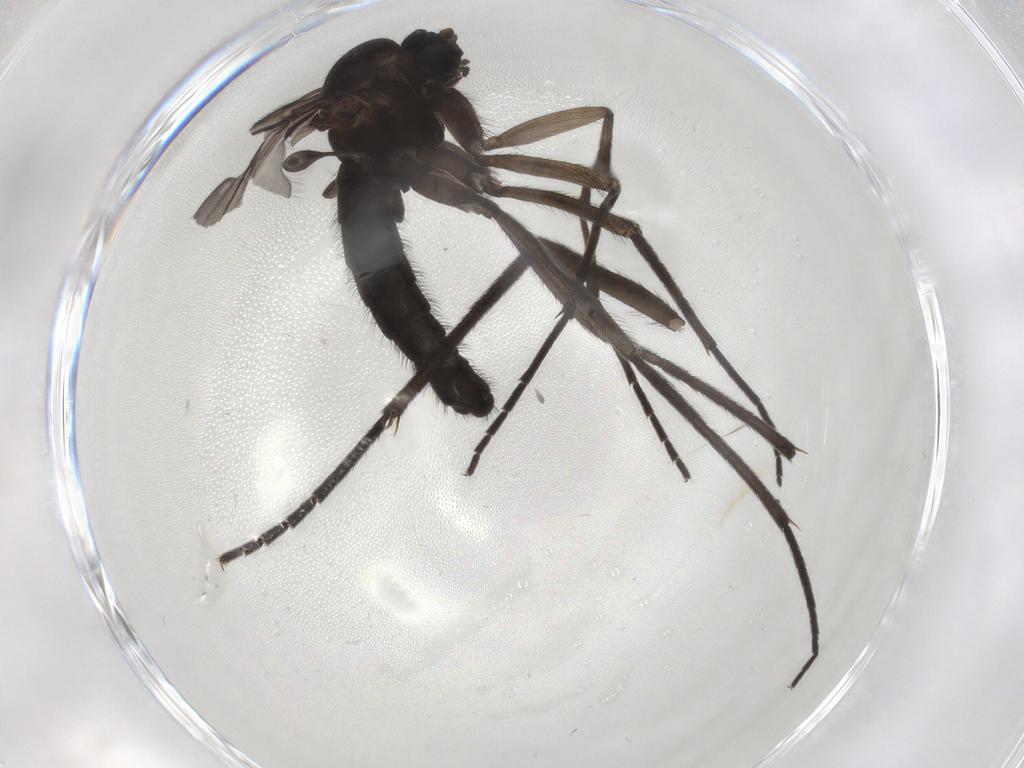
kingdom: Animalia
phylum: Arthropoda
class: Insecta
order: Diptera
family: Sciaridae
